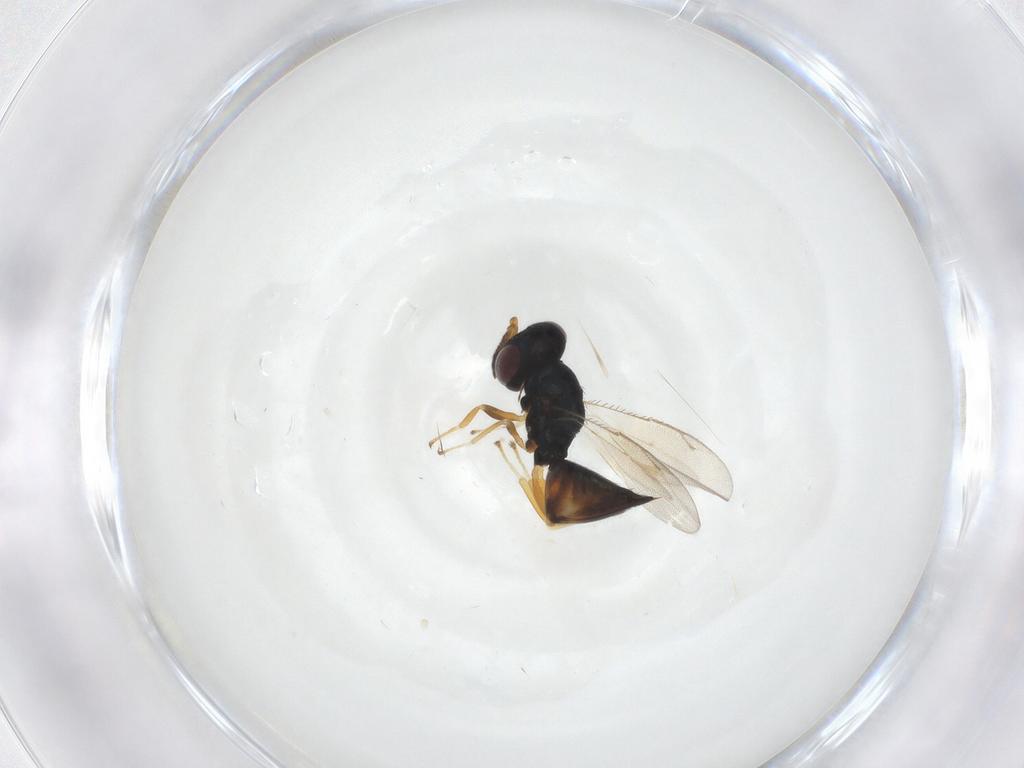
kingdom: Animalia
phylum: Arthropoda
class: Insecta
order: Hymenoptera
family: Pteromalidae
